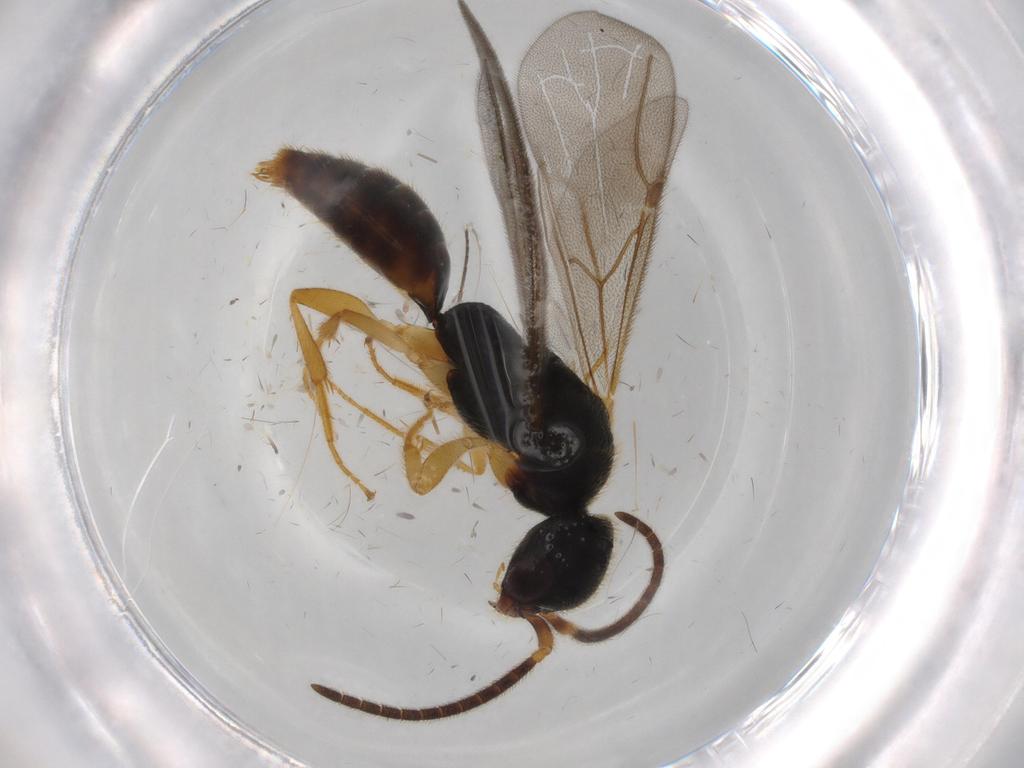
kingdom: Animalia
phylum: Arthropoda
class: Insecta
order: Hymenoptera
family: Bethylidae
